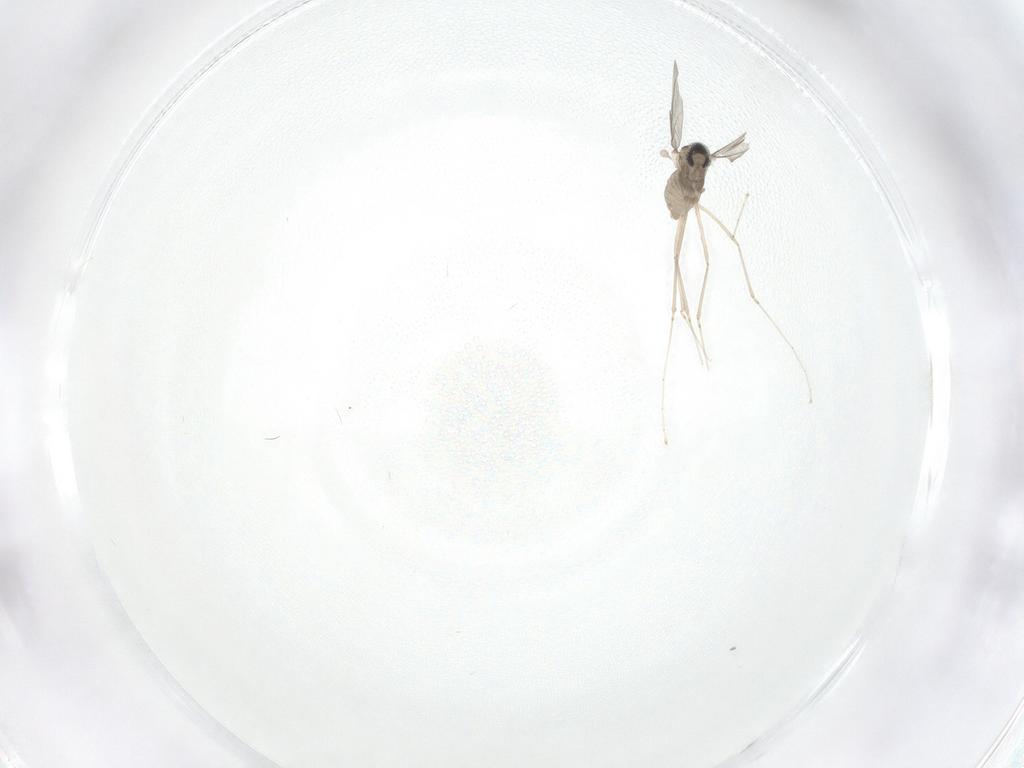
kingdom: Animalia
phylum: Arthropoda
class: Insecta
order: Diptera
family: Cecidomyiidae
